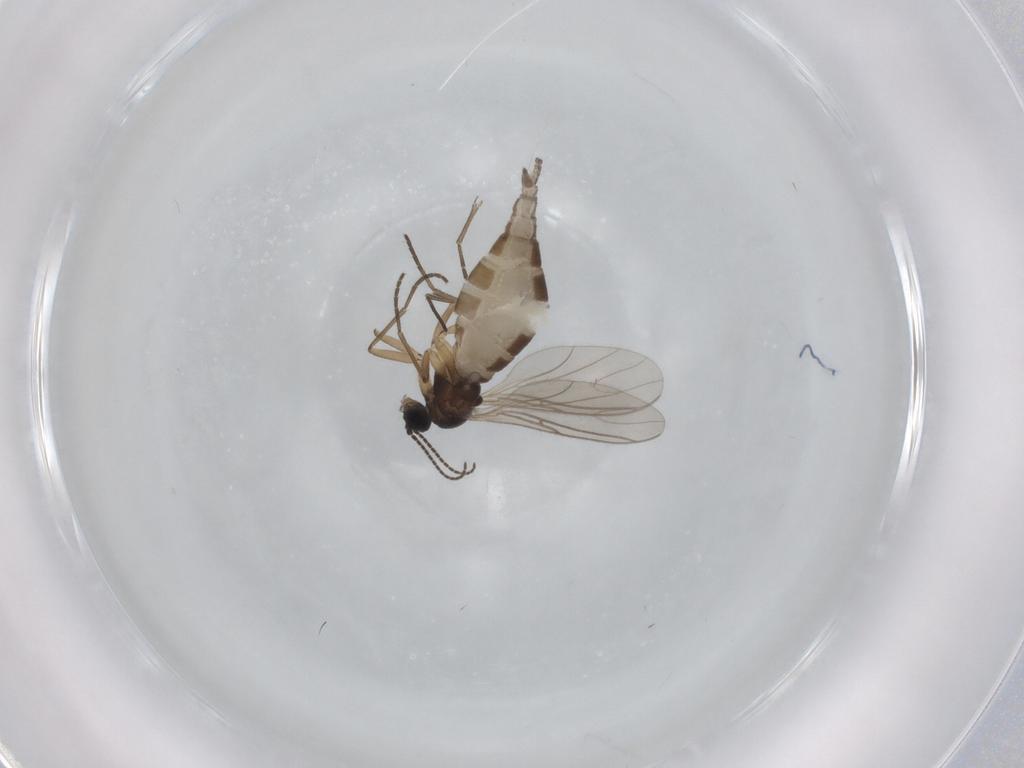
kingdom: Animalia
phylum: Arthropoda
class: Insecta
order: Diptera
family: Sciaridae
